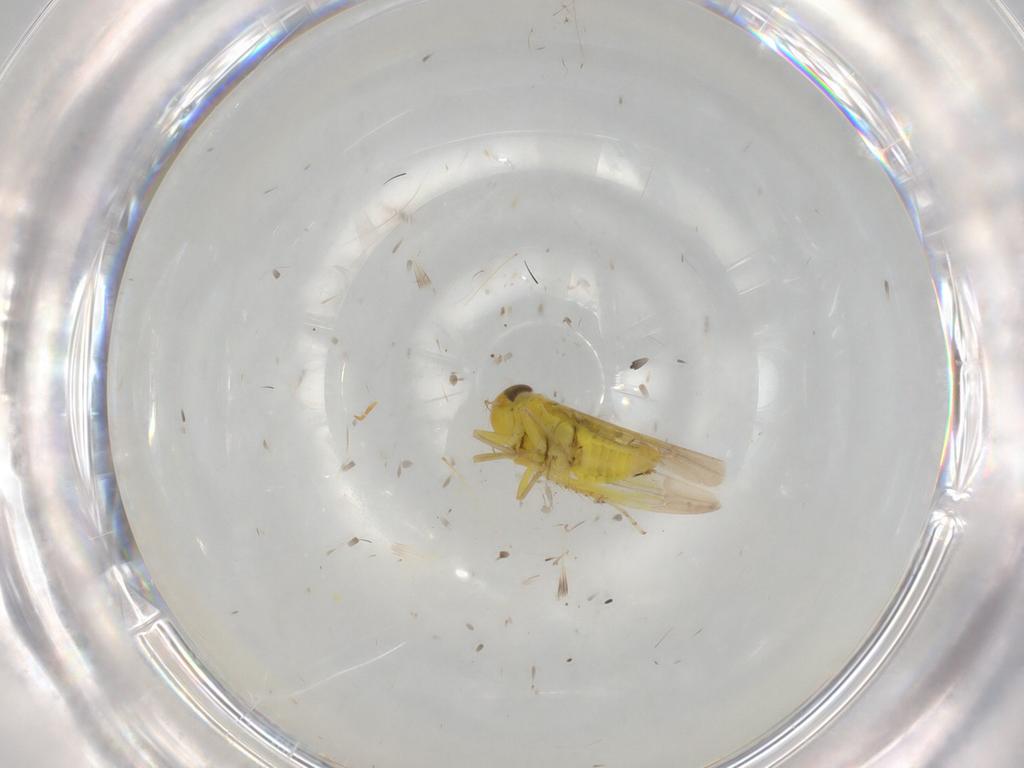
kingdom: Animalia
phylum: Arthropoda
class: Insecta
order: Hemiptera
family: Cicadellidae
